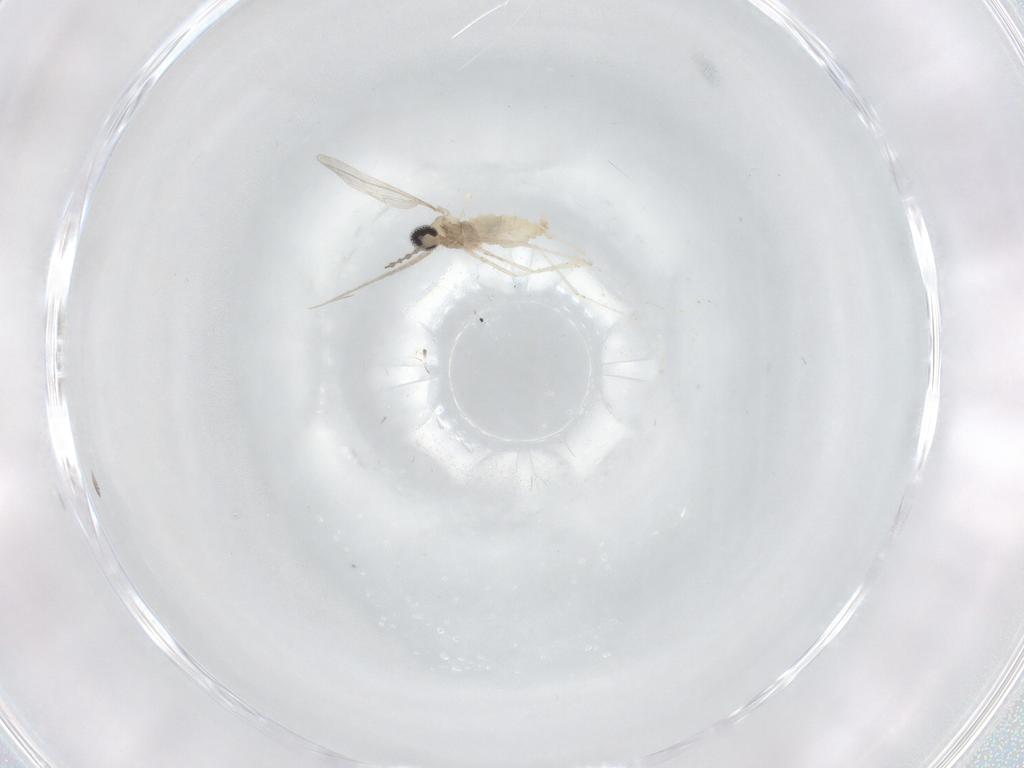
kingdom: Animalia
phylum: Arthropoda
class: Insecta
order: Diptera
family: Cecidomyiidae
